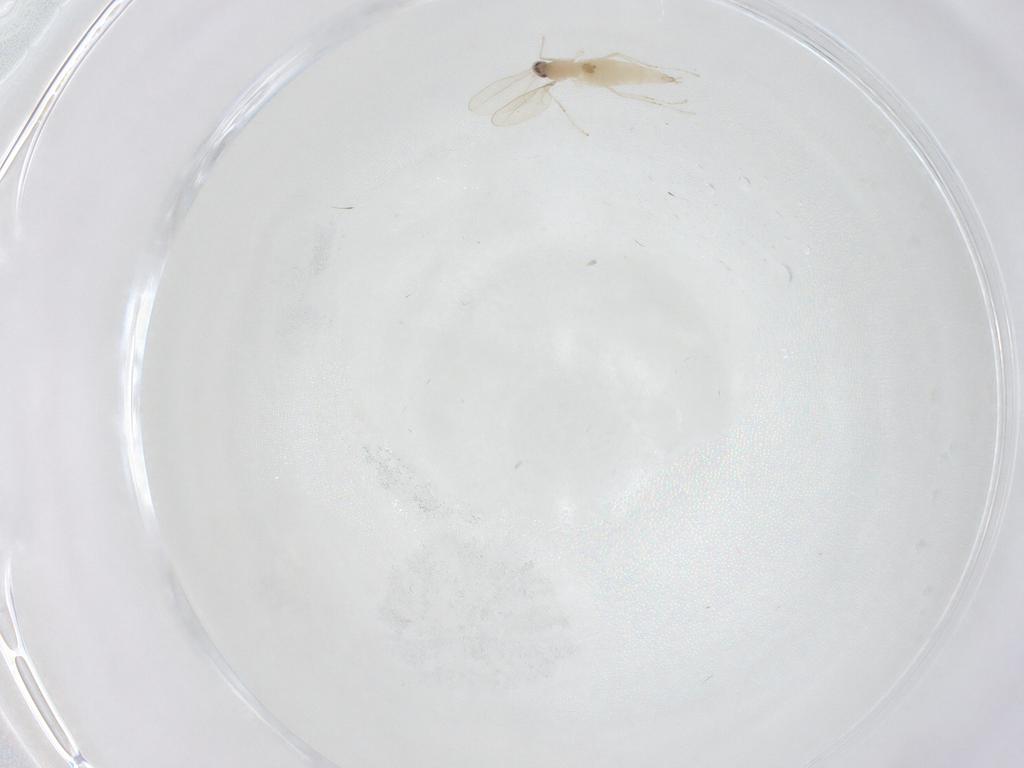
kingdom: Animalia
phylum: Arthropoda
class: Insecta
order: Diptera
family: Cecidomyiidae
